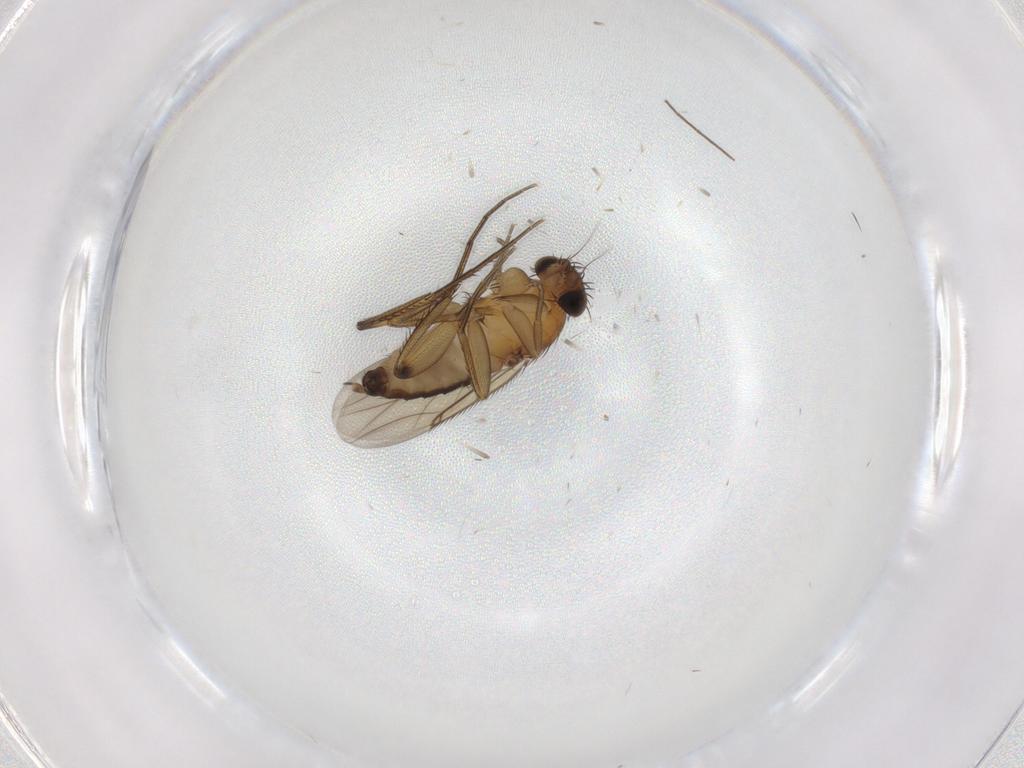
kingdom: Animalia
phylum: Arthropoda
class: Insecta
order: Diptera
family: Phoridae
